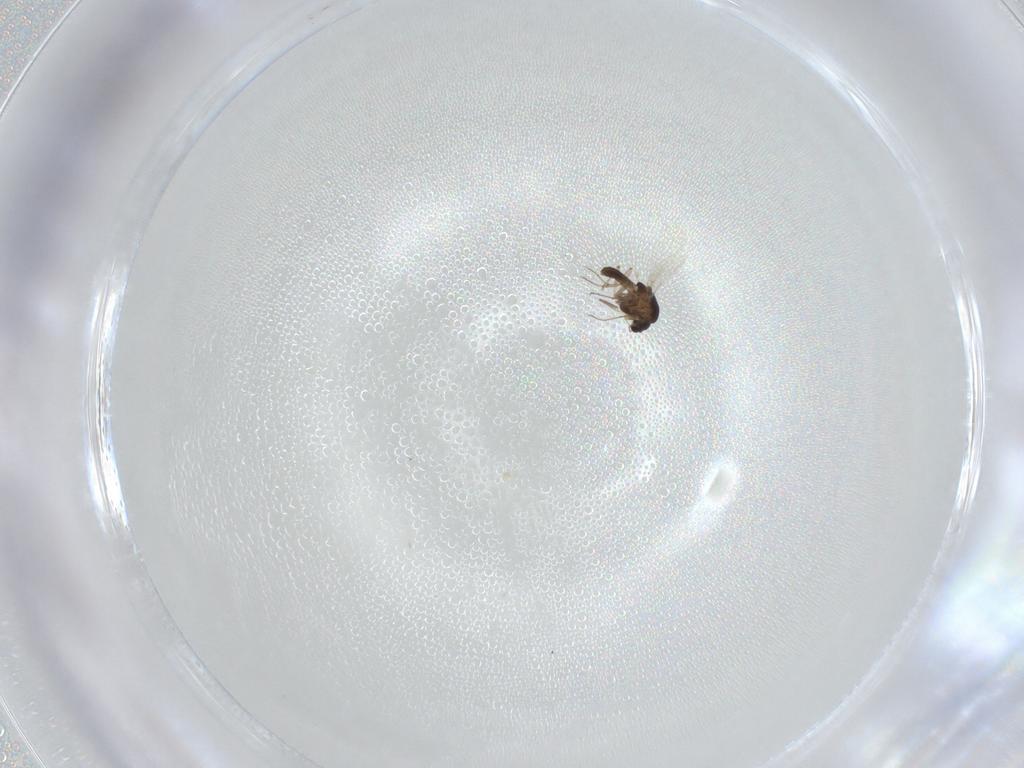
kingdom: Animalia
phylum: Arthropoda
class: Insecta
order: Diptera
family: Chironomidae
